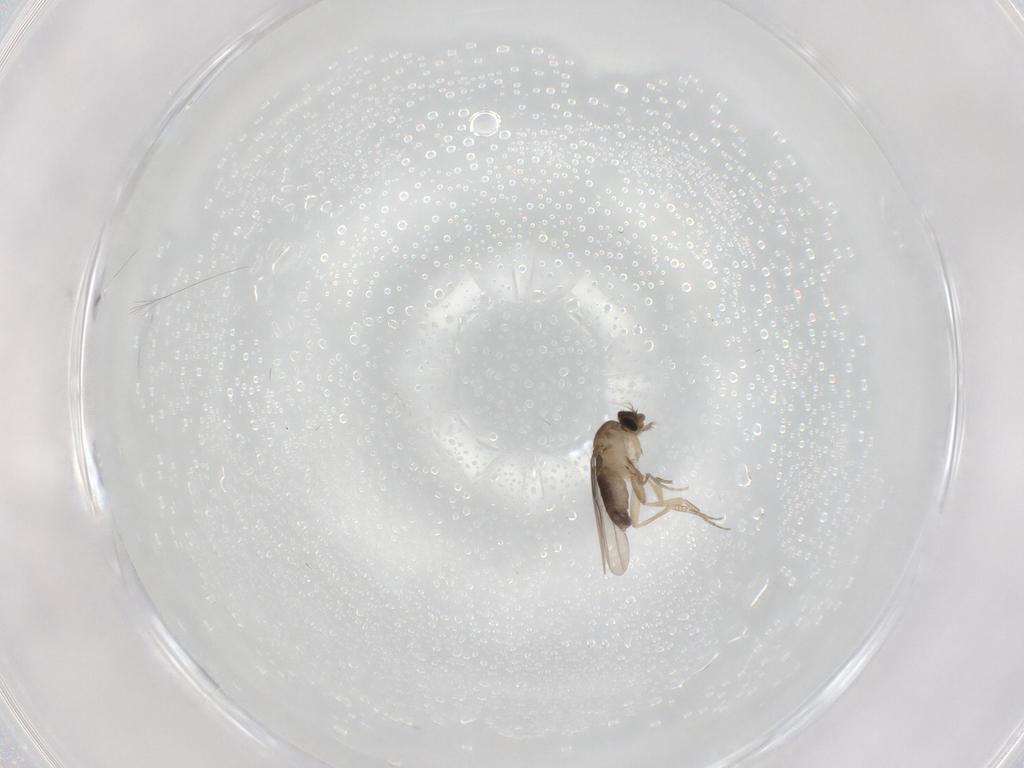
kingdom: Animalia
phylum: Arthropoda
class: Insecta
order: Diptera
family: Phoridae
